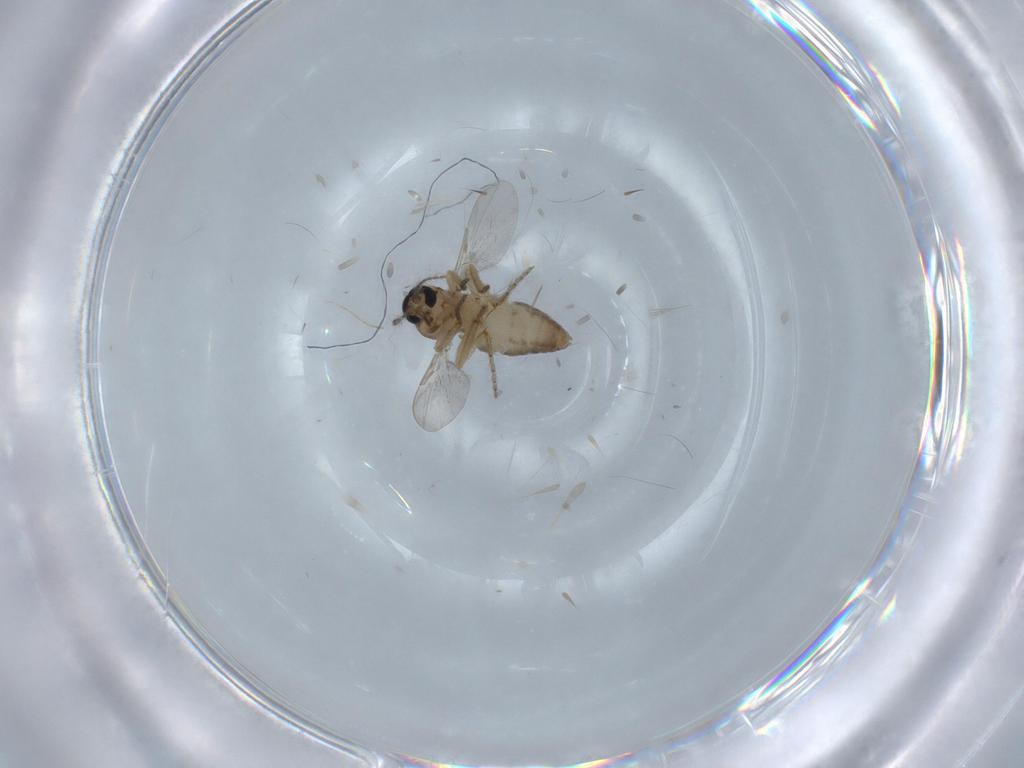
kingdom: Animalia
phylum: Arthropoda
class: Insecta
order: Diptera
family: Ceratopogonidae
